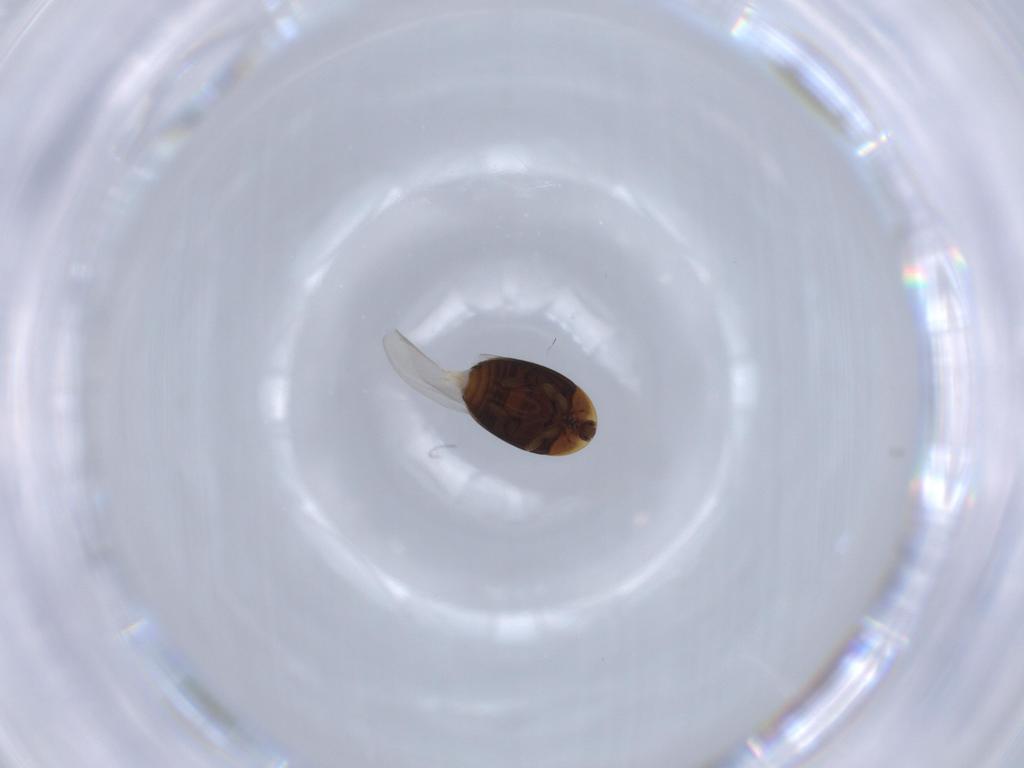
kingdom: Animalia
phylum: Arthropoda
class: Insecta
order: Coleoptera
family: Corylophidae
